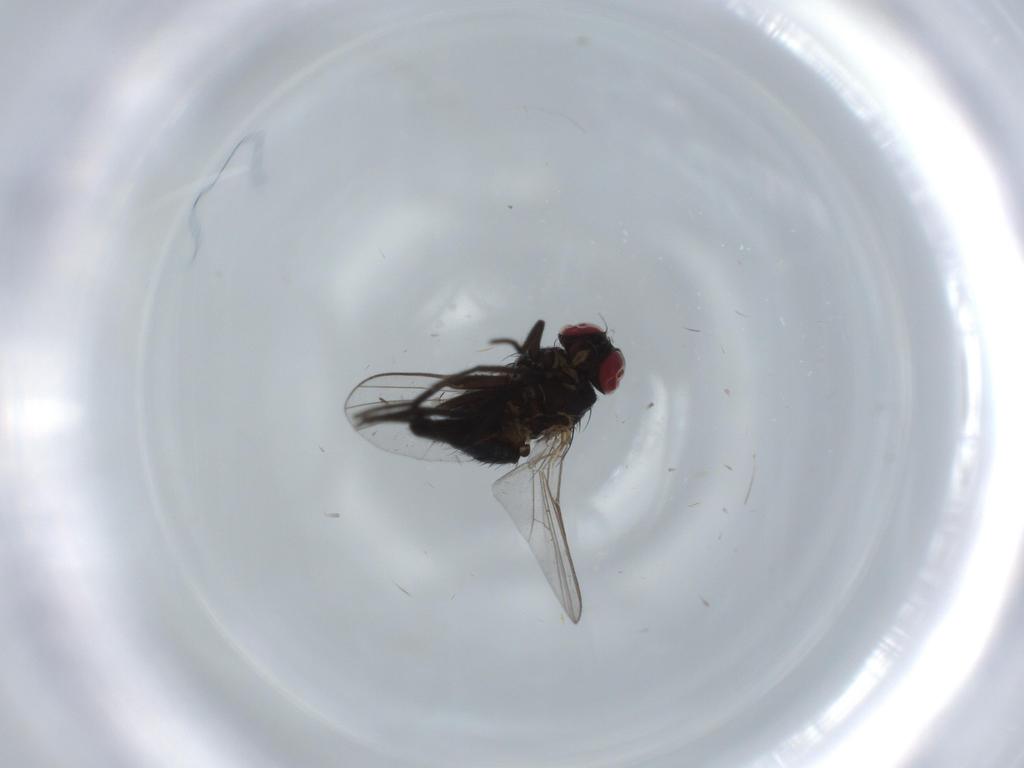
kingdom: Animalia
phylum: Arthropoda
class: Insecta
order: Diptera
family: Agromyzidae
